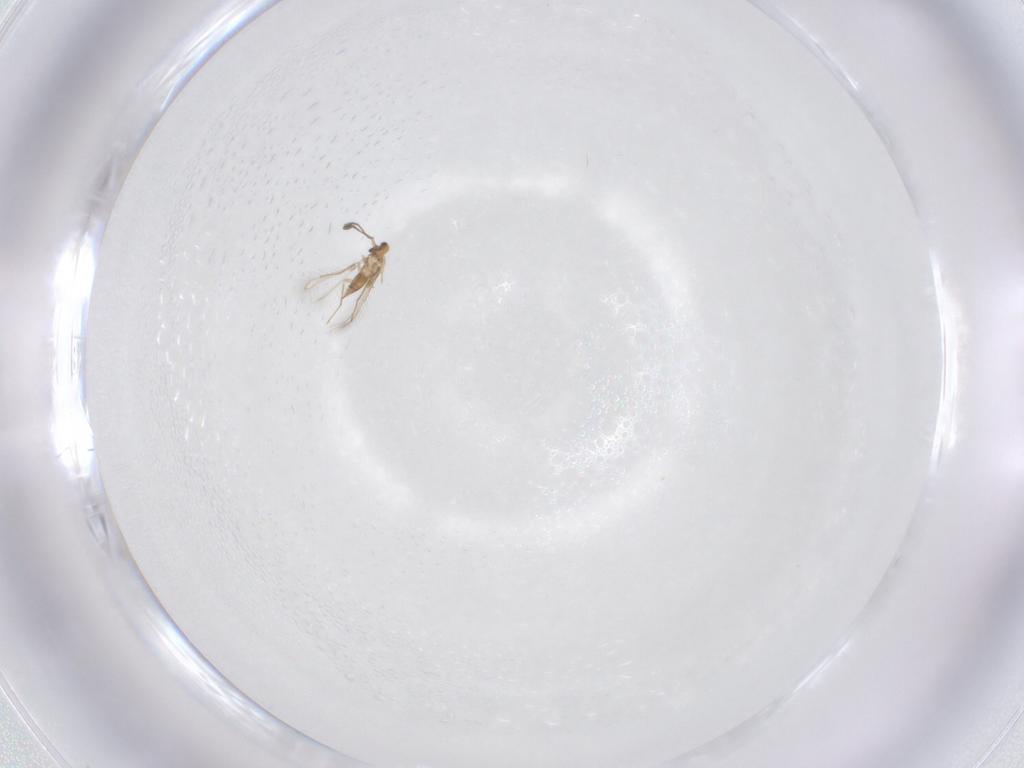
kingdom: Animalia
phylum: Arthropoda
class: Insecta
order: Hymenoptera
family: Mymaridae
